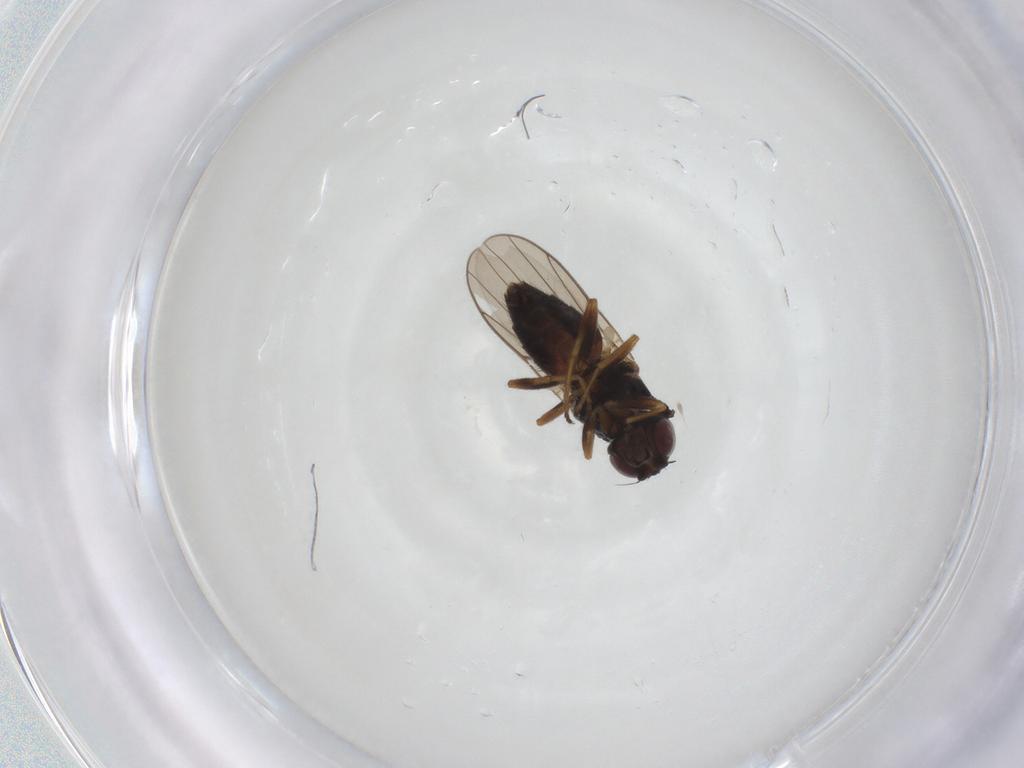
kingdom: Animalia
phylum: Arthropoda
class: Insecta
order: Diptera
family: Chloropidae
